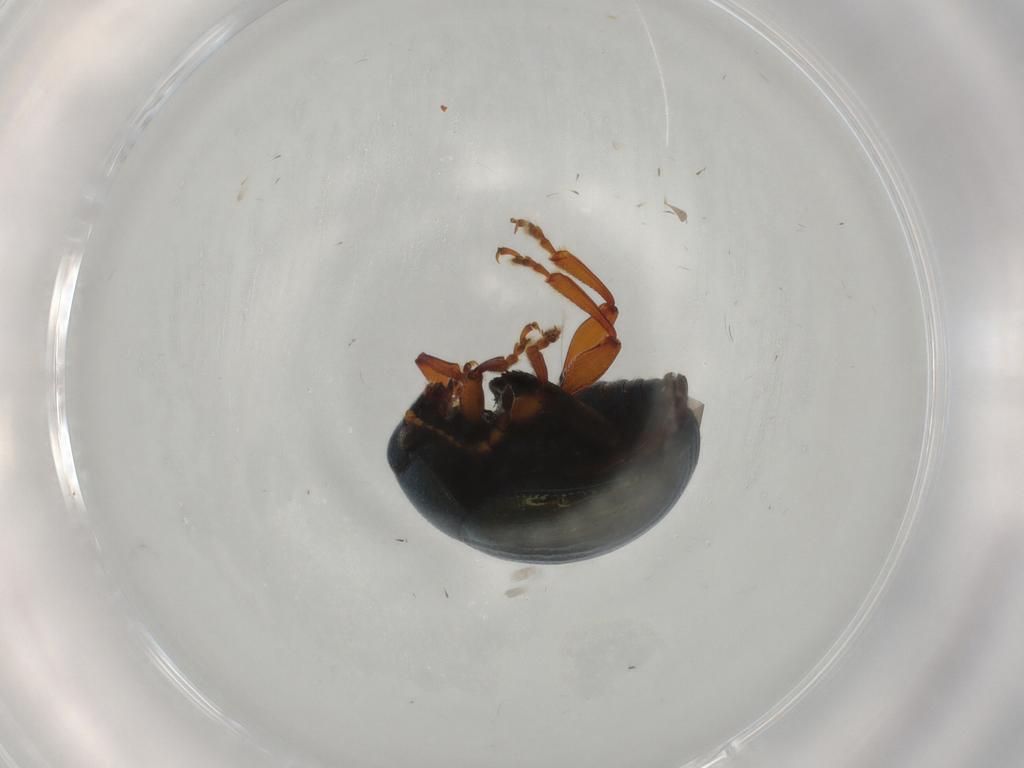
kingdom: Animalia
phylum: Arthropoda
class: Insecta
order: Coleoptera
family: Chrysomelidae
